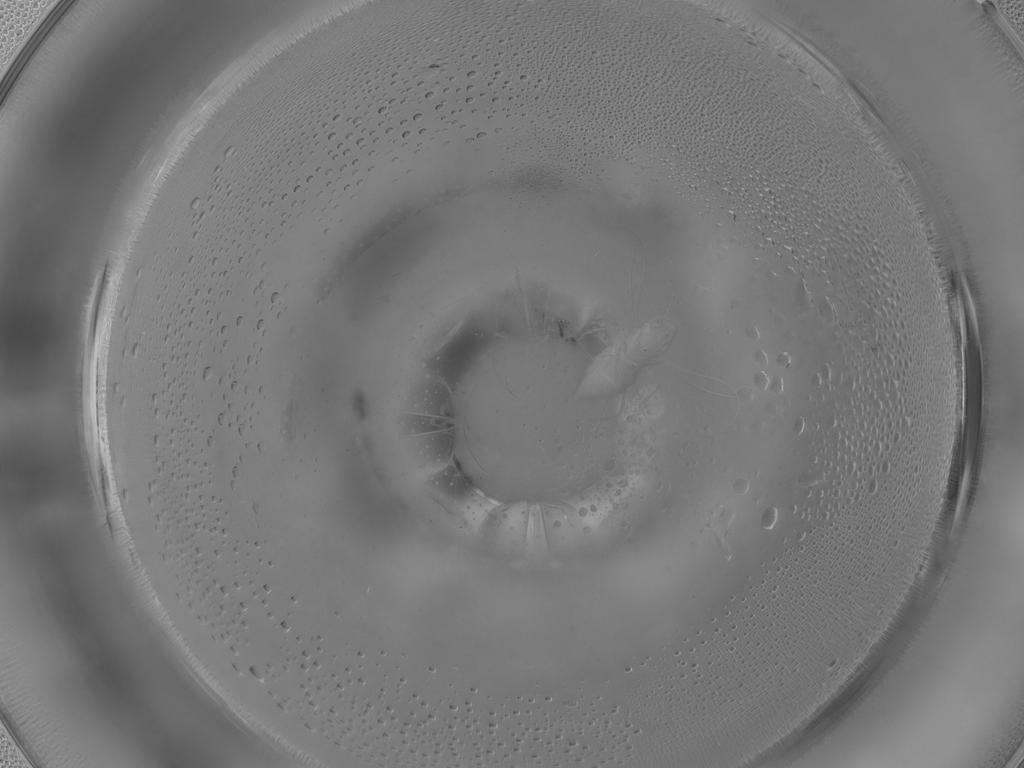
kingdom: Animalia
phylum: Arthropoda
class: Insecta
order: Diptera
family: Cecidomyiidae
